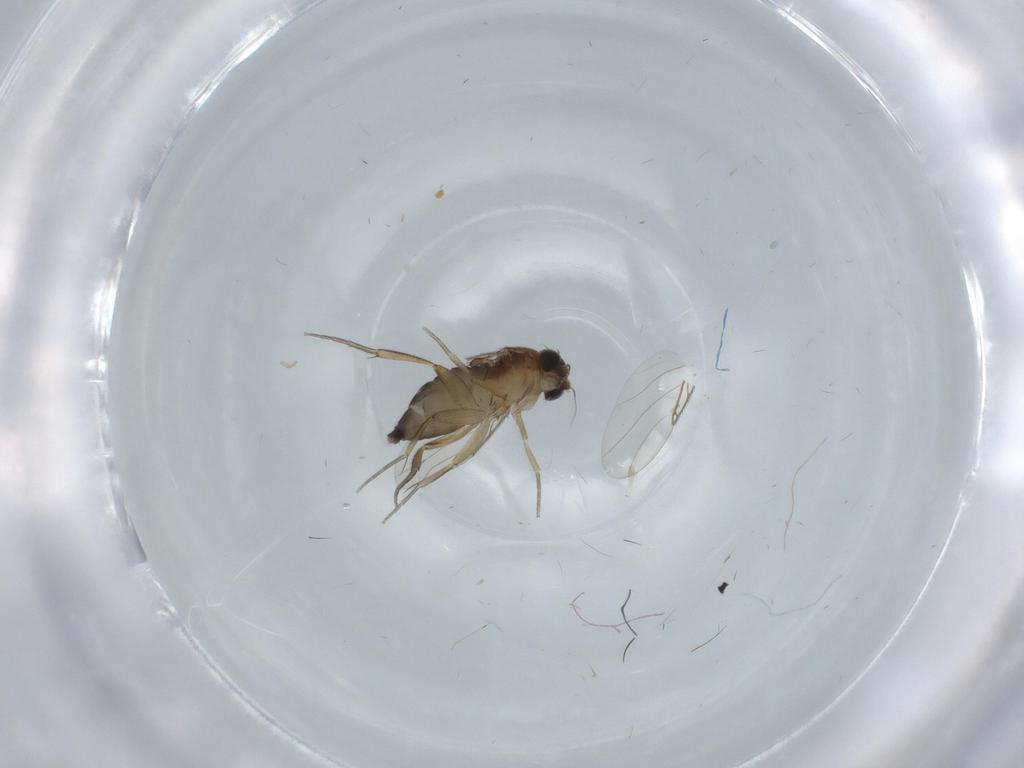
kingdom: Animalia
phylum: Arthropoda
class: Insecta
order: Diptera
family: Phoridae
